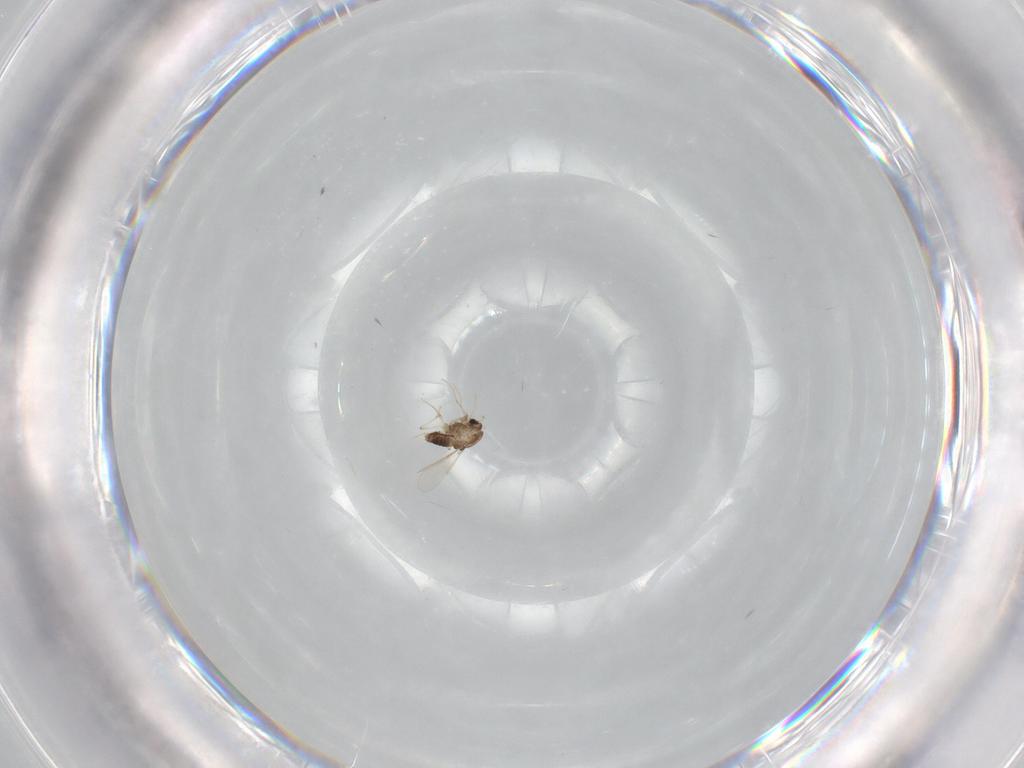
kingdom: Animalia
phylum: Arthropoda
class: Insecta
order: Diptera
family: Chironomidae
